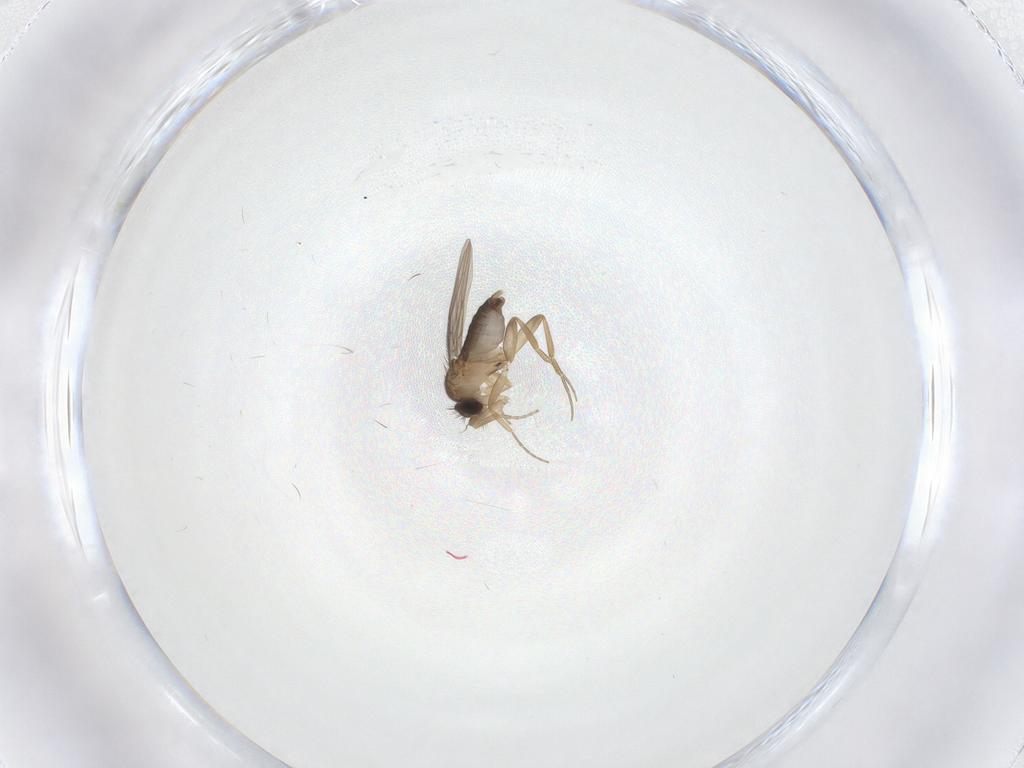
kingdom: Animalia
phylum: Arthropoda
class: Insecta
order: Diptera
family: Phoridae
